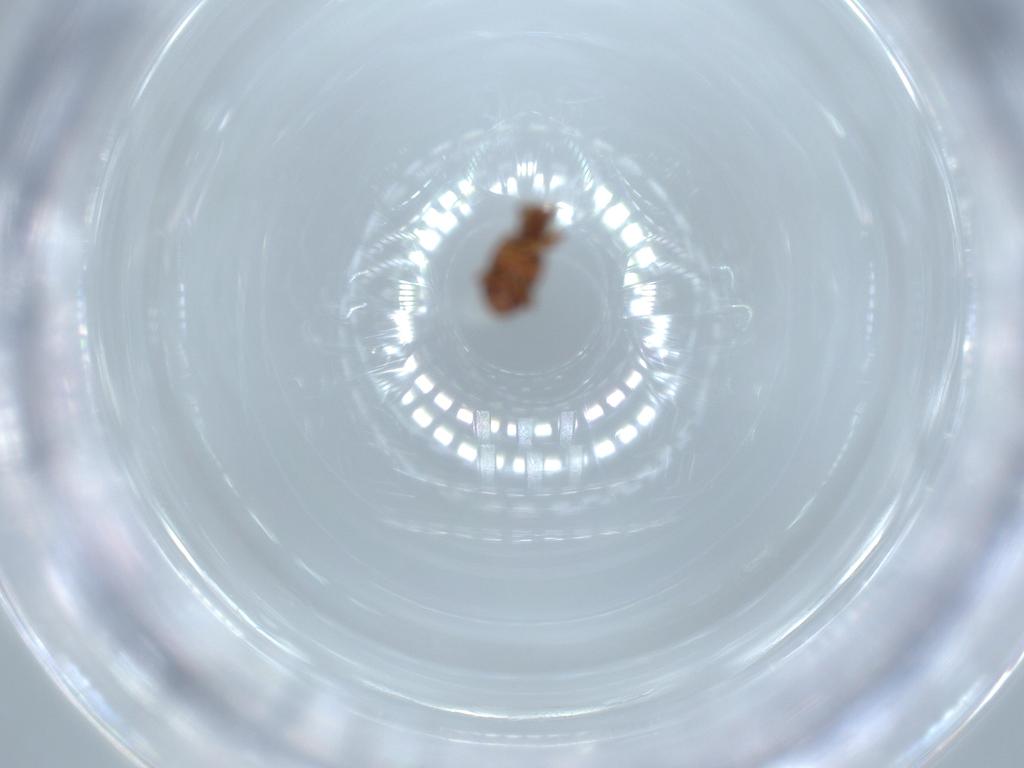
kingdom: Animalia
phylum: Arthropoda
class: Insecta
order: Coleoptera
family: Staphylinidae
